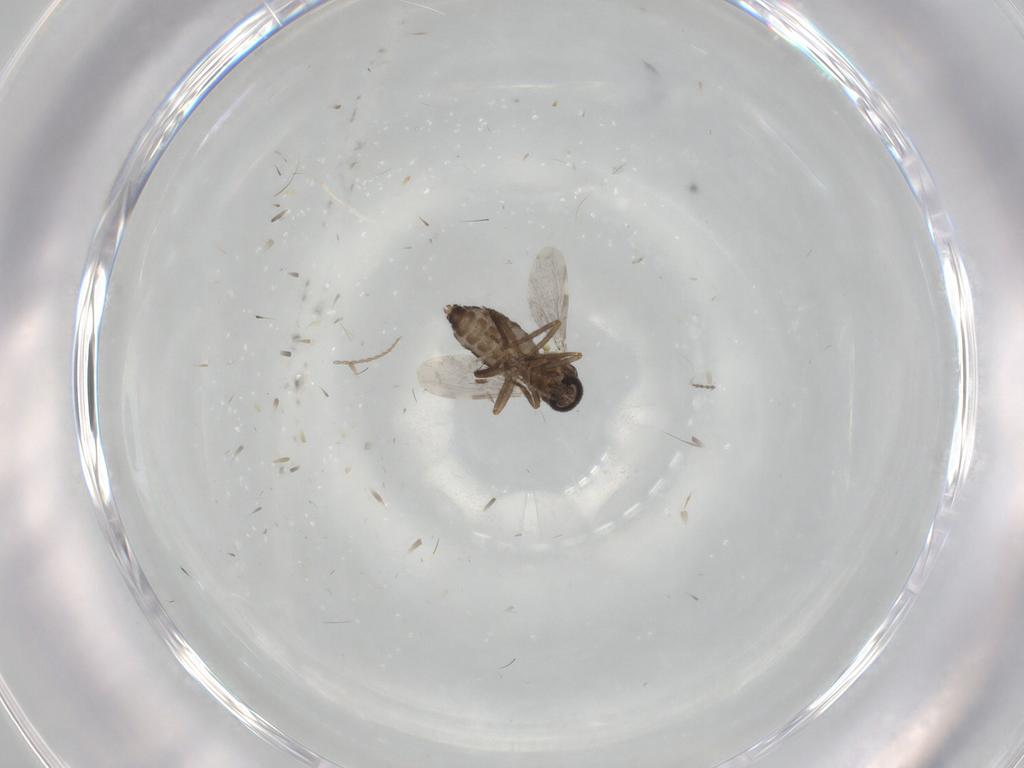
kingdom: Animalia
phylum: Arthropoda
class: Insecta
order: Diptera
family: Ceratopogonidae
